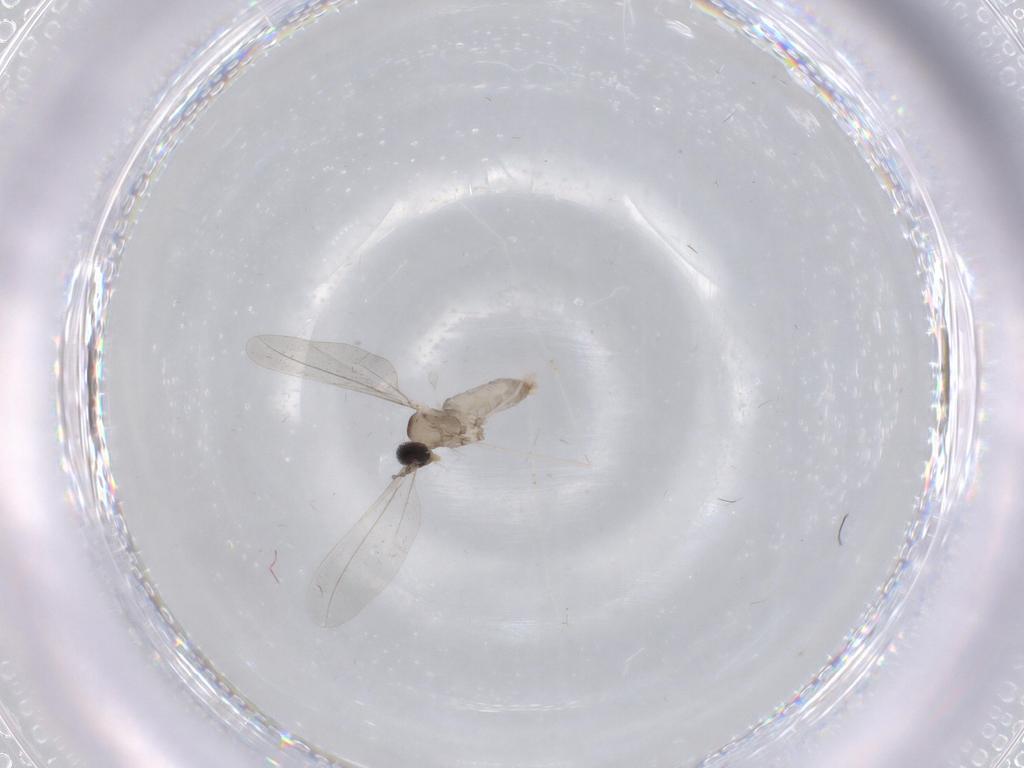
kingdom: Animalia
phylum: Arthropoda
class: Insecta
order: Diptera
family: Cecidomyiidae
